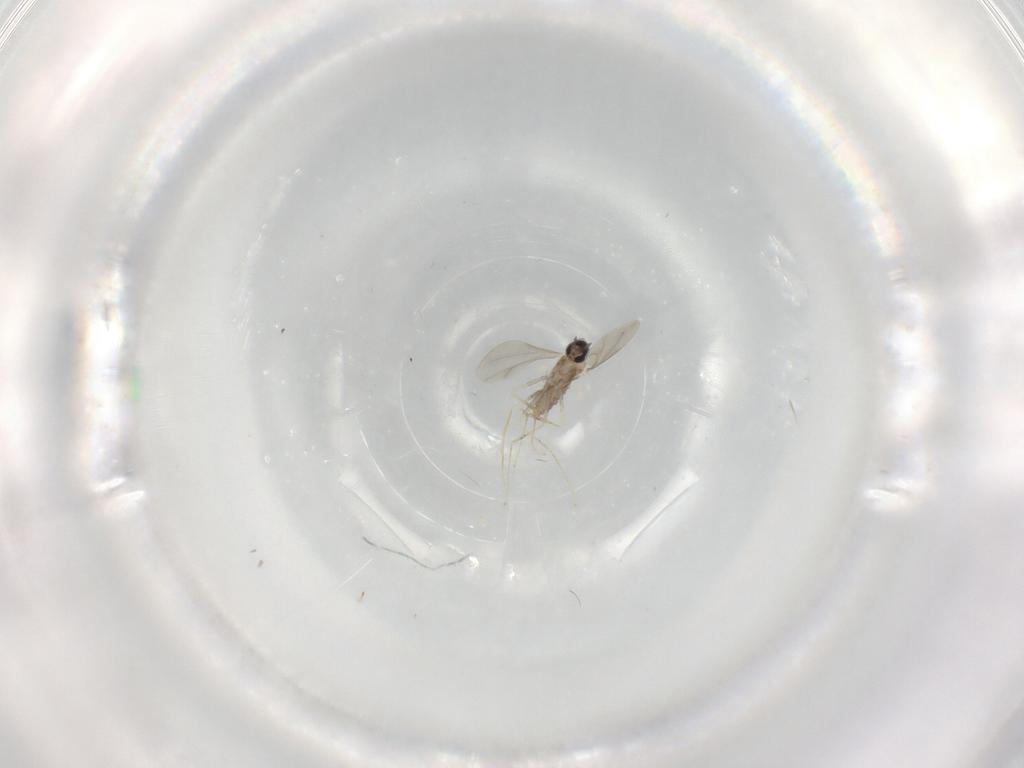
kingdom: Animalia
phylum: Arthropoda
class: Insecta
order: Diptera
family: Cecidomyiidae
